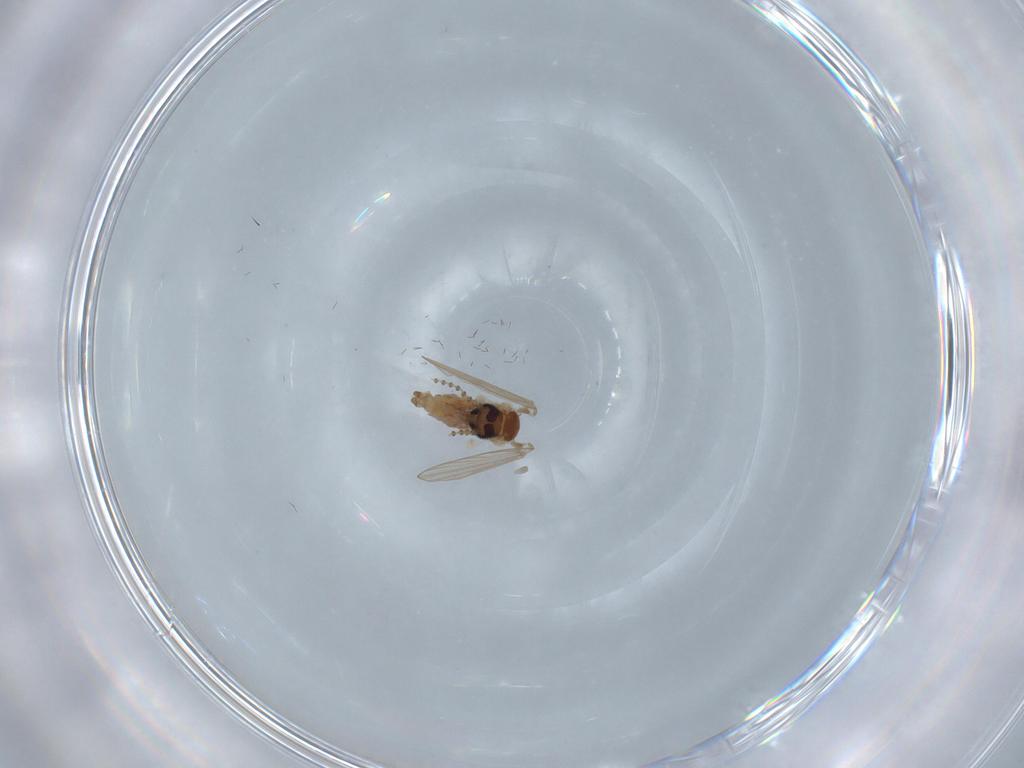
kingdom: Animalia
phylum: Arthropoda
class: Insecta
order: Diptera
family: Psychodidae
